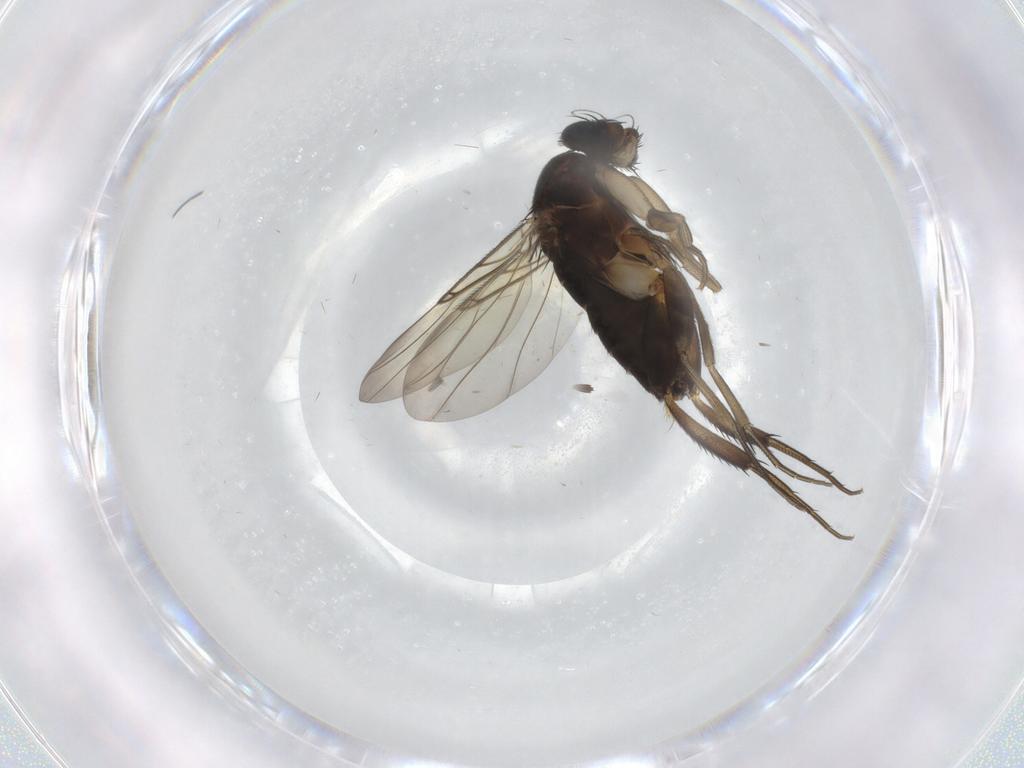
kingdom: Animalia
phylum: Arthropoda
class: Insecta
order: Diptera
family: Phoridae
